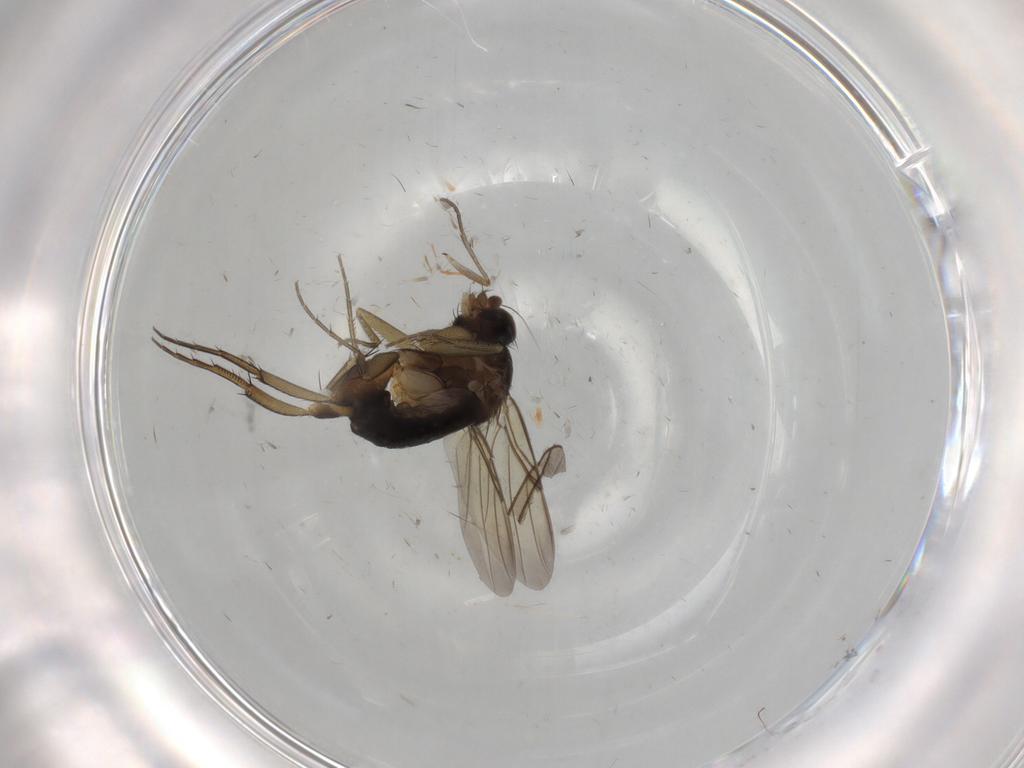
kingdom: Animalia
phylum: Arthropoda
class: Insecta
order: Diptera
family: Phoridae
